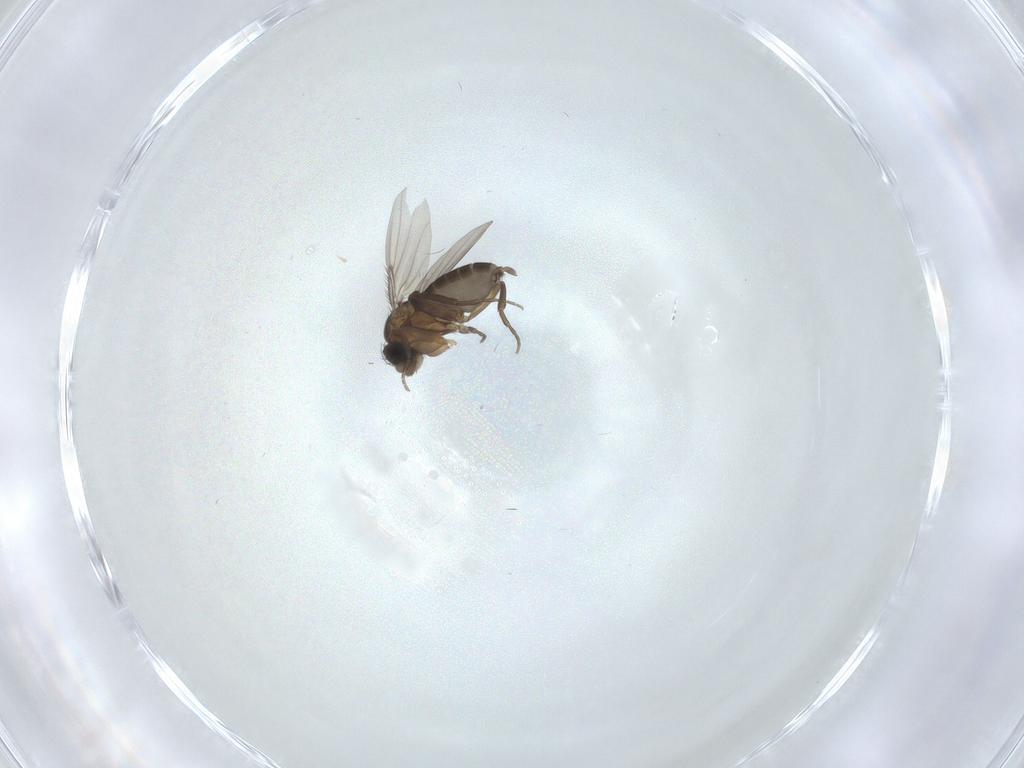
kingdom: Animalia
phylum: Arthropoda
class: Insecta
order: Diptera
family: Phoridae
